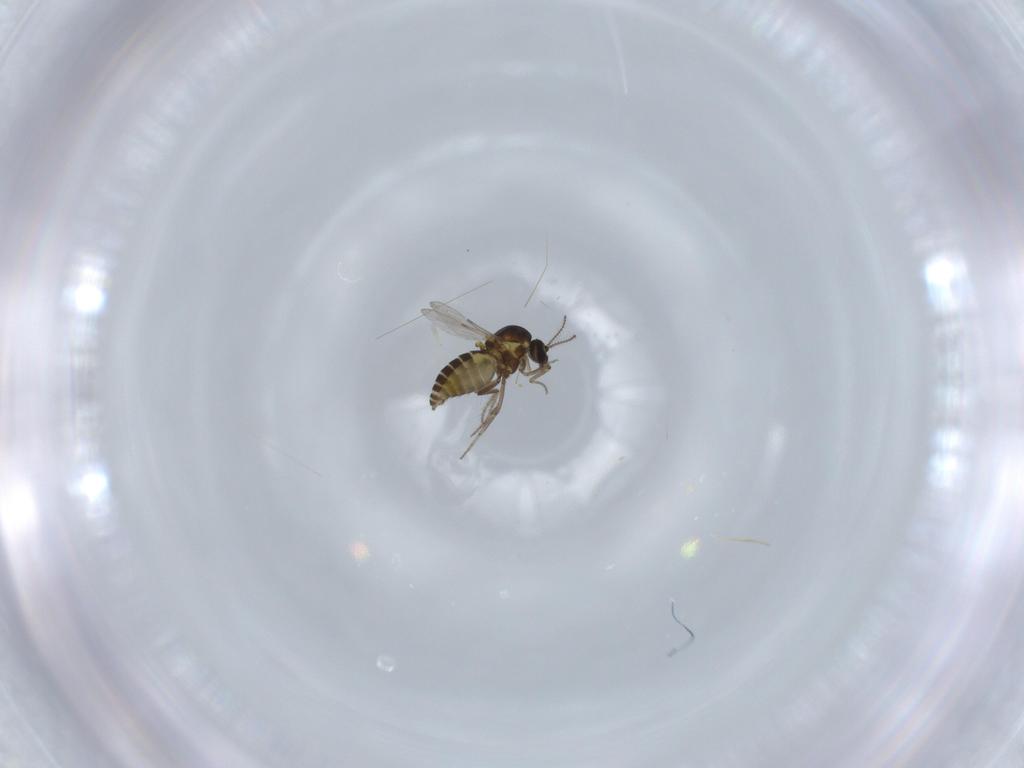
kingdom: Animalia
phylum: Arthropoda
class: Insecta
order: Diptera
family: Ceratopogonidae
